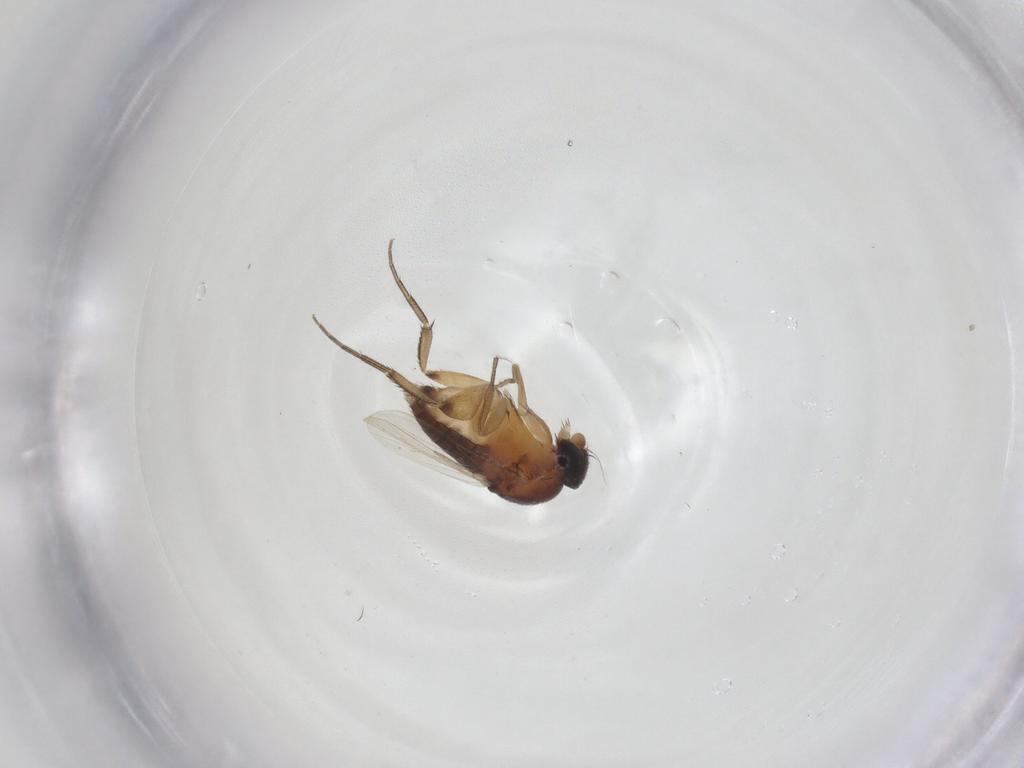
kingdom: Animalia
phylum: Arthropoda
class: Insecta
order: Diptera
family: Phoridae
